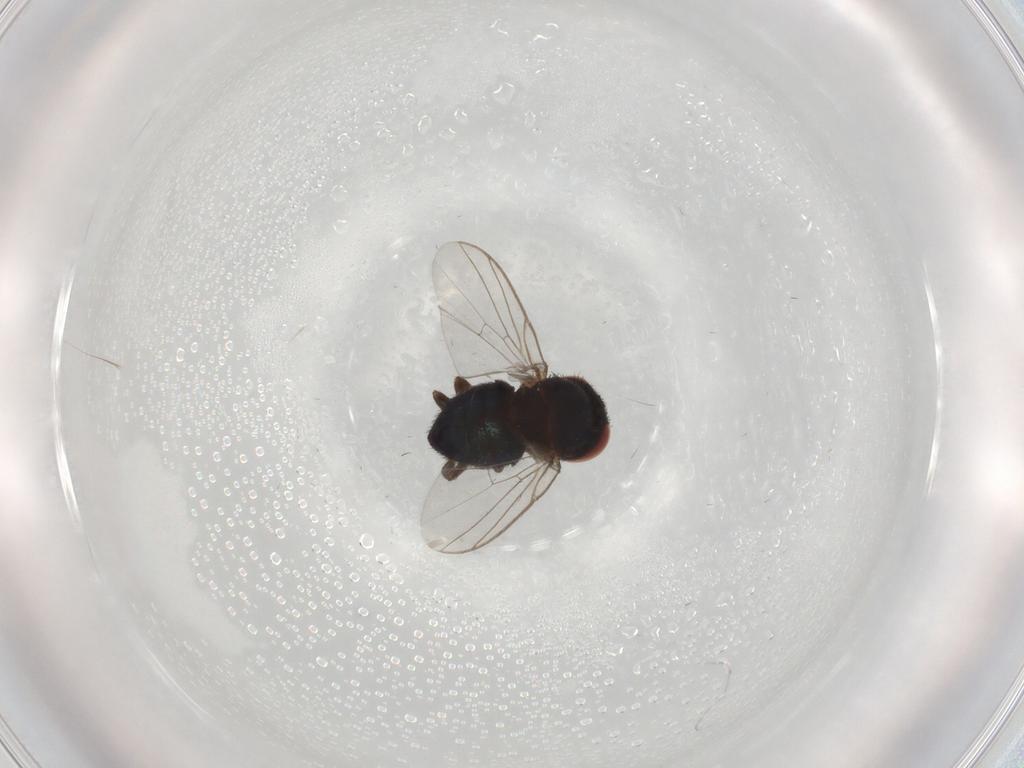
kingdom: Animalia
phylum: Arthropoda
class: Insecta
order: Diptera
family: Cecidomyiidae
